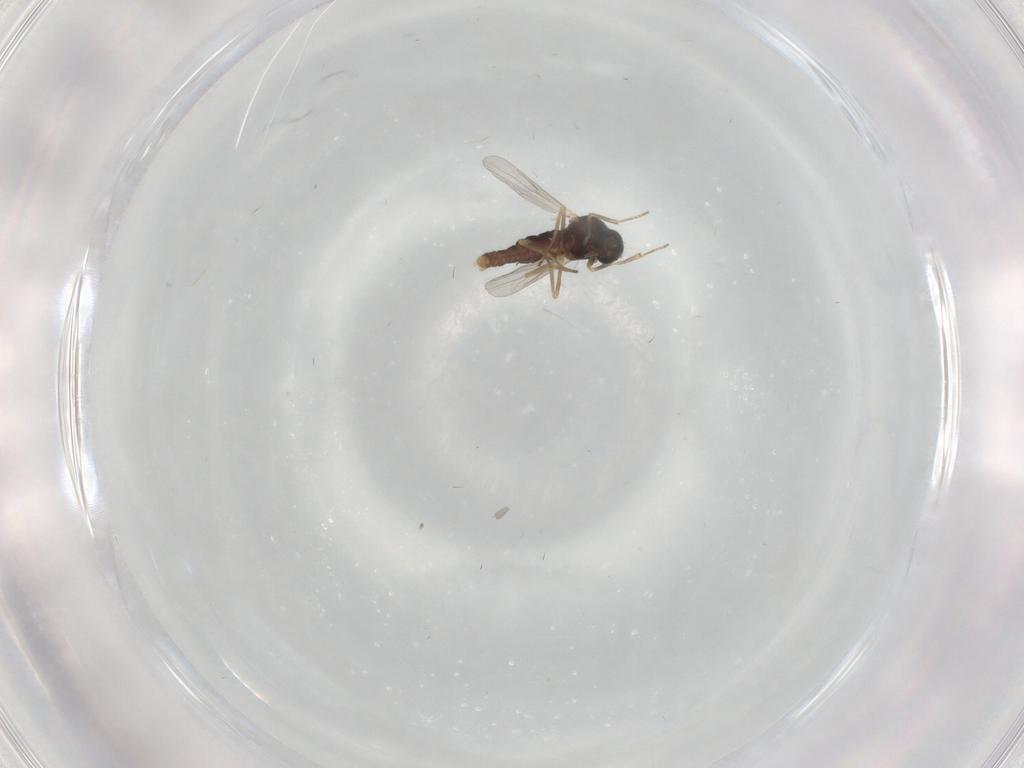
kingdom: Animalia
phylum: Arthropoda
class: Insecta
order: Diptera
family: Ceratopogonidae
